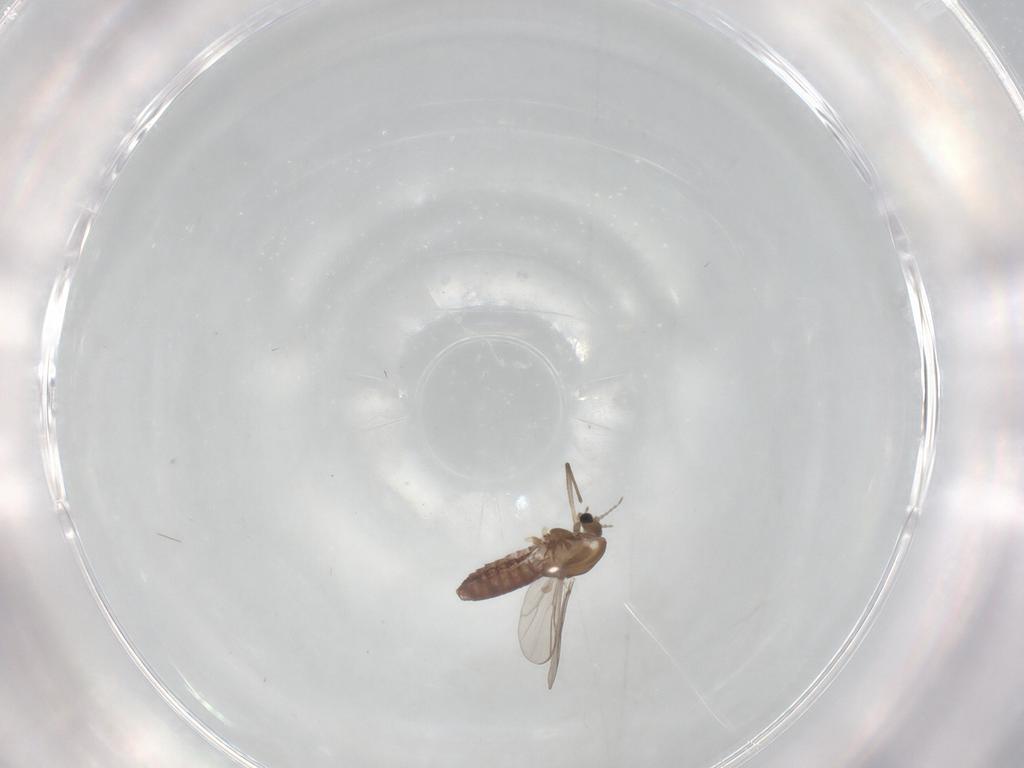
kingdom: Animalia
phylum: Arthropoda
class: Insecta
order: Diptera
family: Chironomidae
